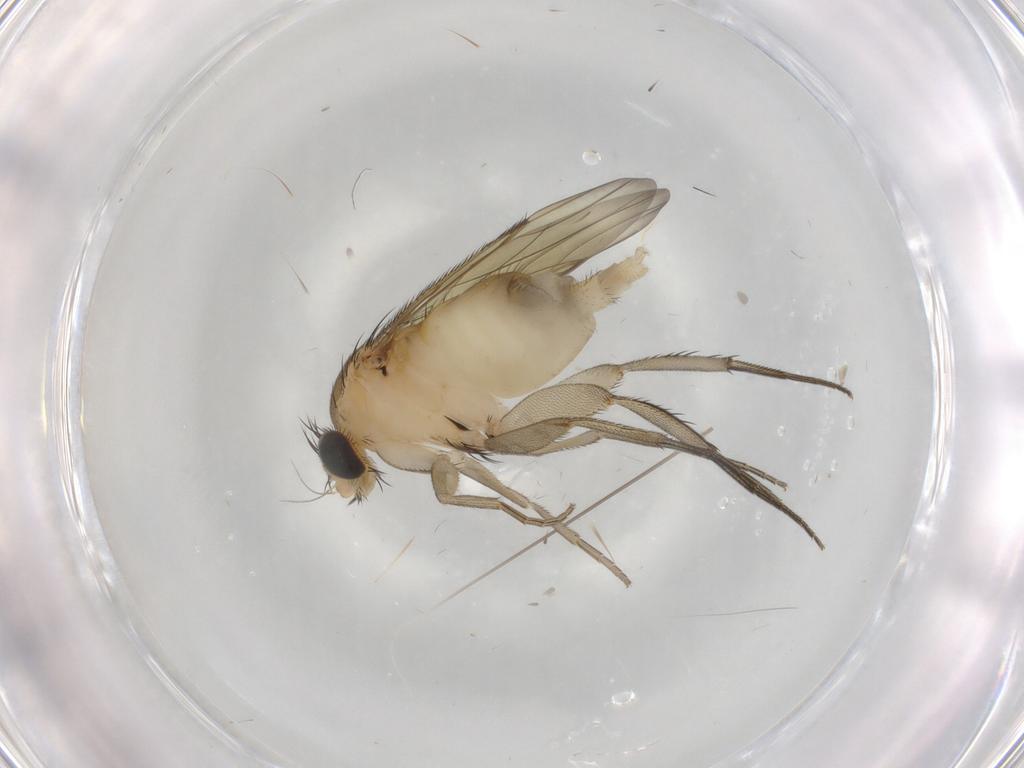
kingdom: Animalia
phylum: Arthropoda
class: Insecta
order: Diptera
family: Phoridae
